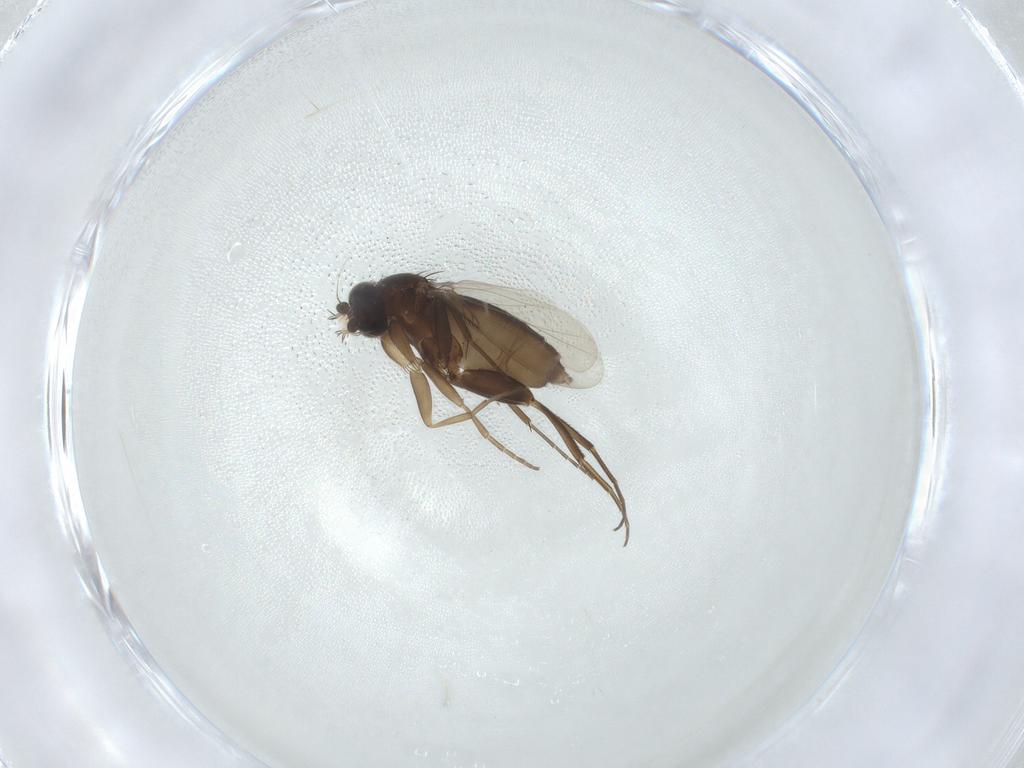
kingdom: Animalia
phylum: Arthropoda
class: Insecta
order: Diptera
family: Phoridae
